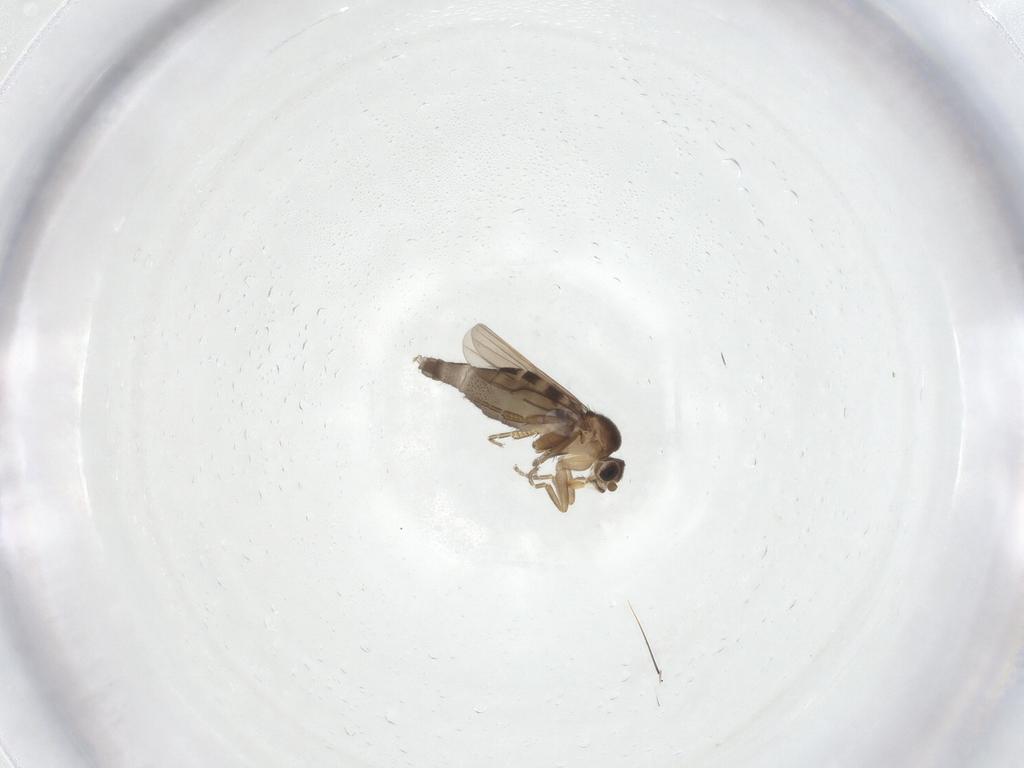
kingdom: Animalia
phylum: Arthropoda
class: Insecta
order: Diptera
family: Phoridae
